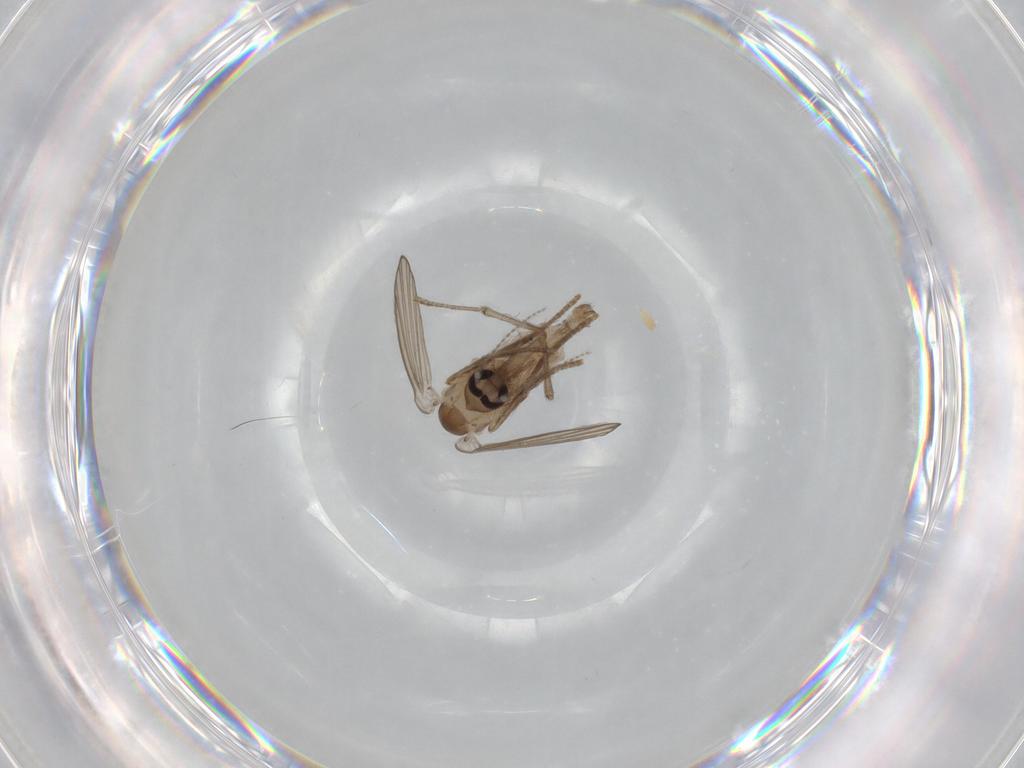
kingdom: Animalia
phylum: Arthropoda
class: Insecta
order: Diptera
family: Psychodidae
